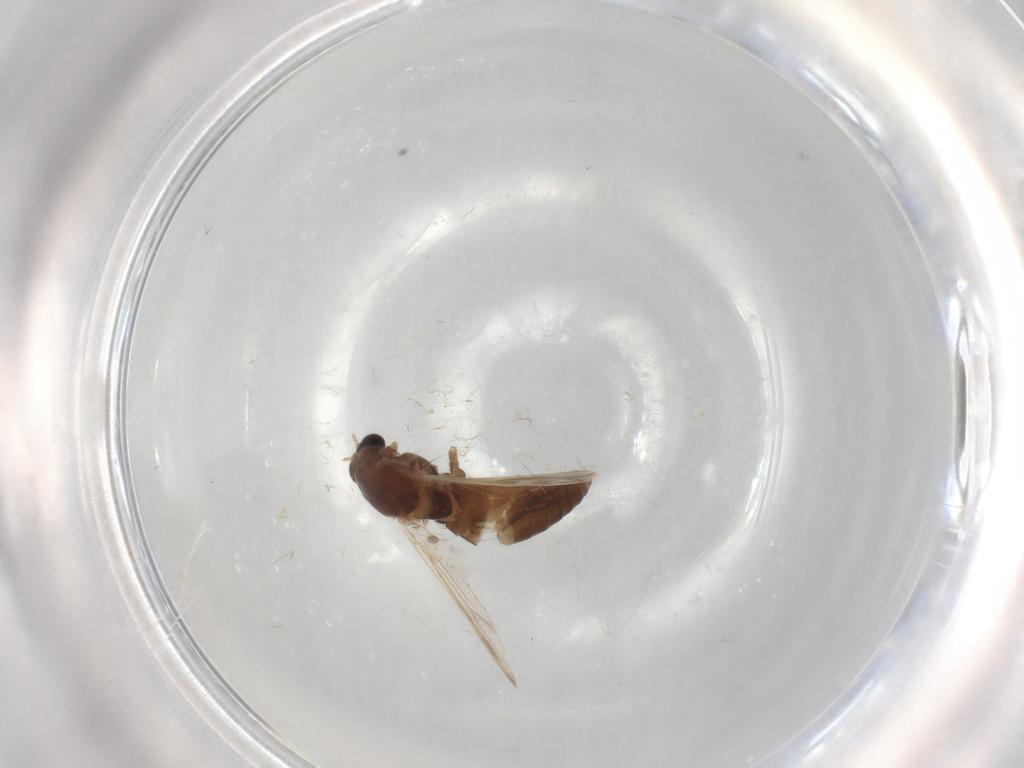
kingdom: Animalia
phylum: Arthropoda
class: Insecta
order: Diptera
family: Chironomidae
